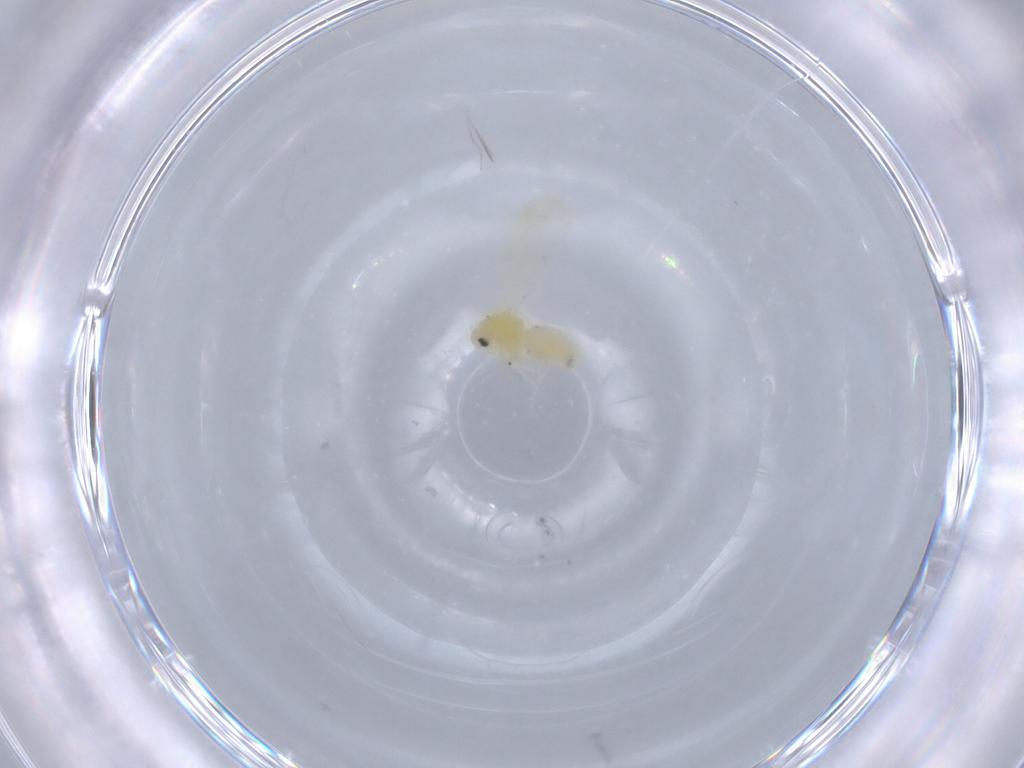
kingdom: Animalia
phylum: Arthropoda
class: Insecta
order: Hemiptera
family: Aleyrodidae
